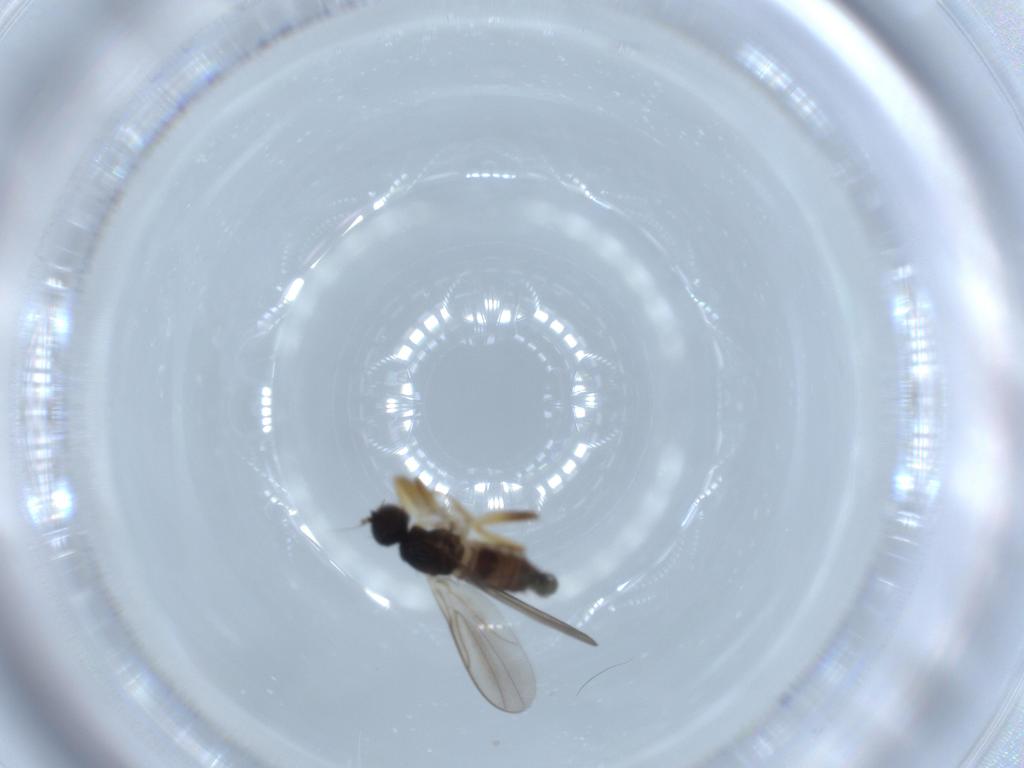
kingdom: Animalia
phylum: Arthropoda
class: Insecta
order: Diptera
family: Hybotidae
